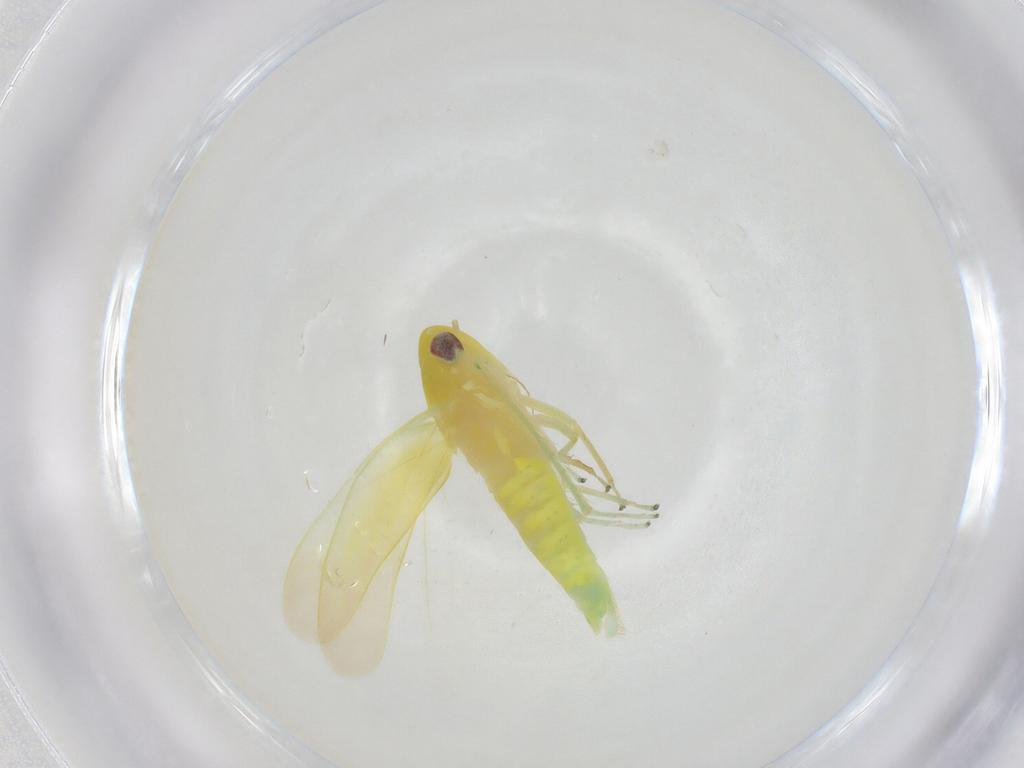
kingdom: Animalia
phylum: Arthropoda
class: Insecta
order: Hemiptera
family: Cicadellidae
